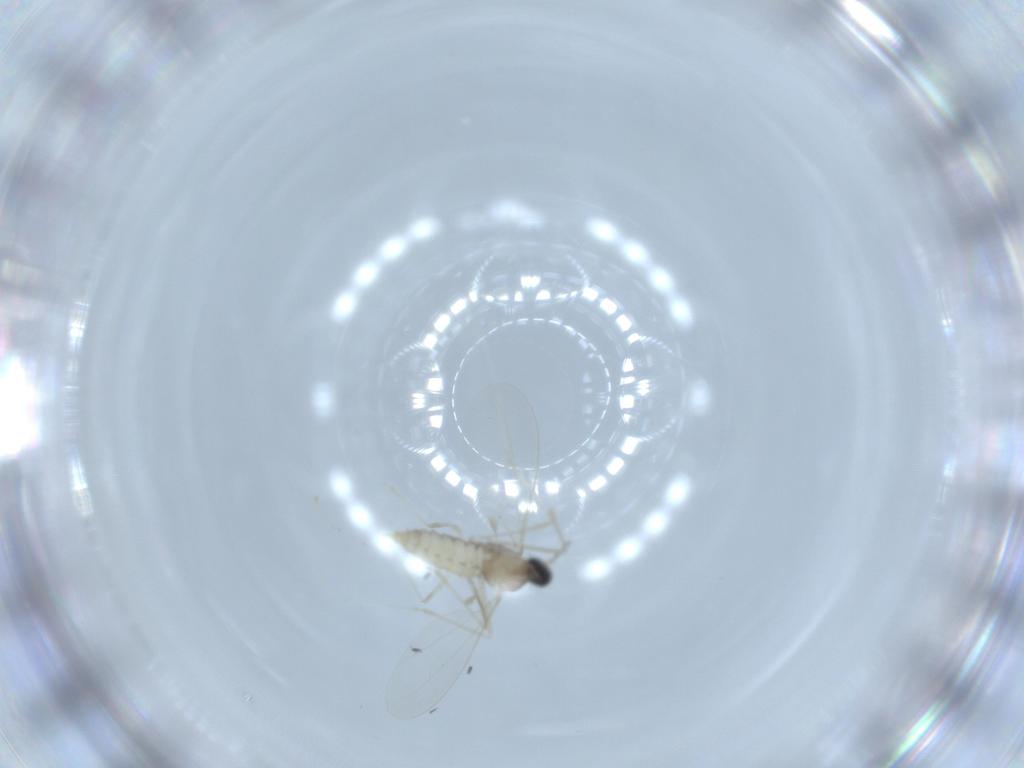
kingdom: Animalia
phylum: Arthropoda
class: Insecta
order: Diptera
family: Cecidomyiidae
